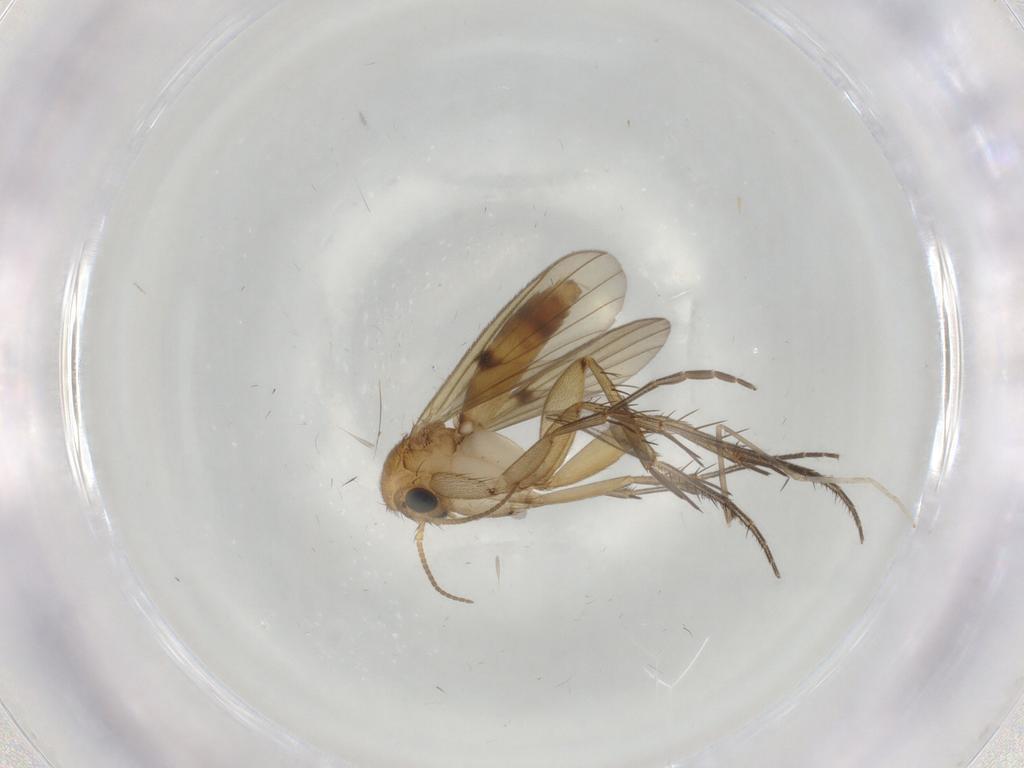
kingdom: Animalia
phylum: Arthropoda
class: Insecta
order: Diptera
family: Chironomidae
